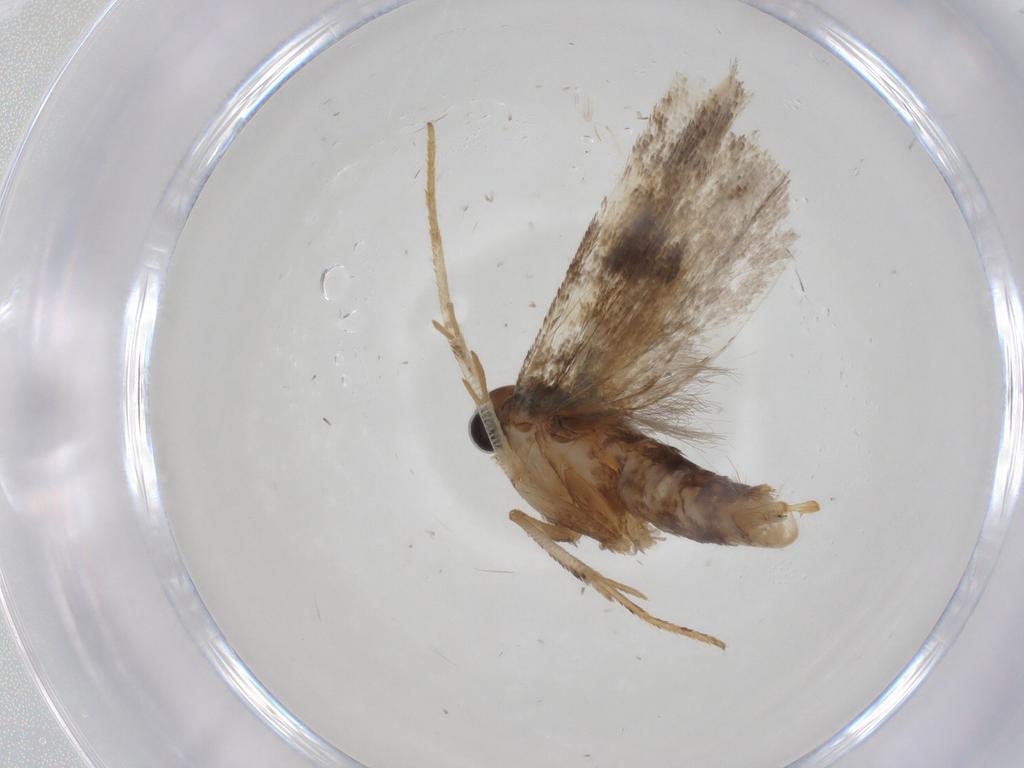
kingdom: Animalia
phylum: Arthropoda
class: Insecta
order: Lepidoptera
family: Gelechiidae
